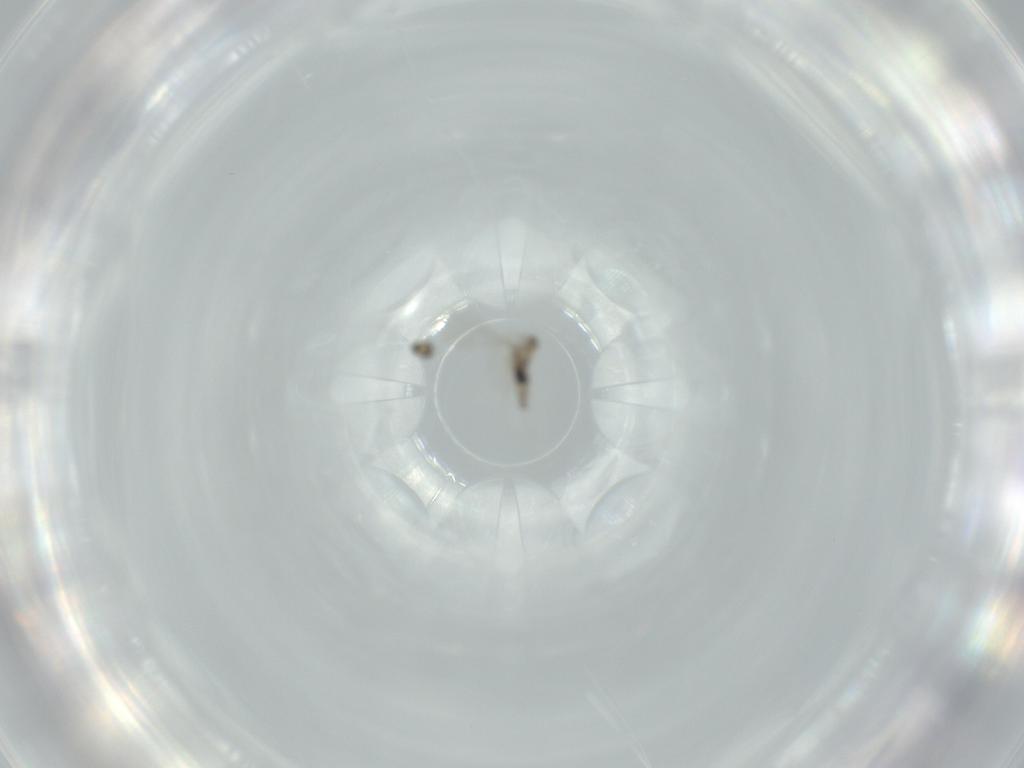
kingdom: Animalia
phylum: Arthropoda
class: Insecta
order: Diptera
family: Cecidomyiidae
